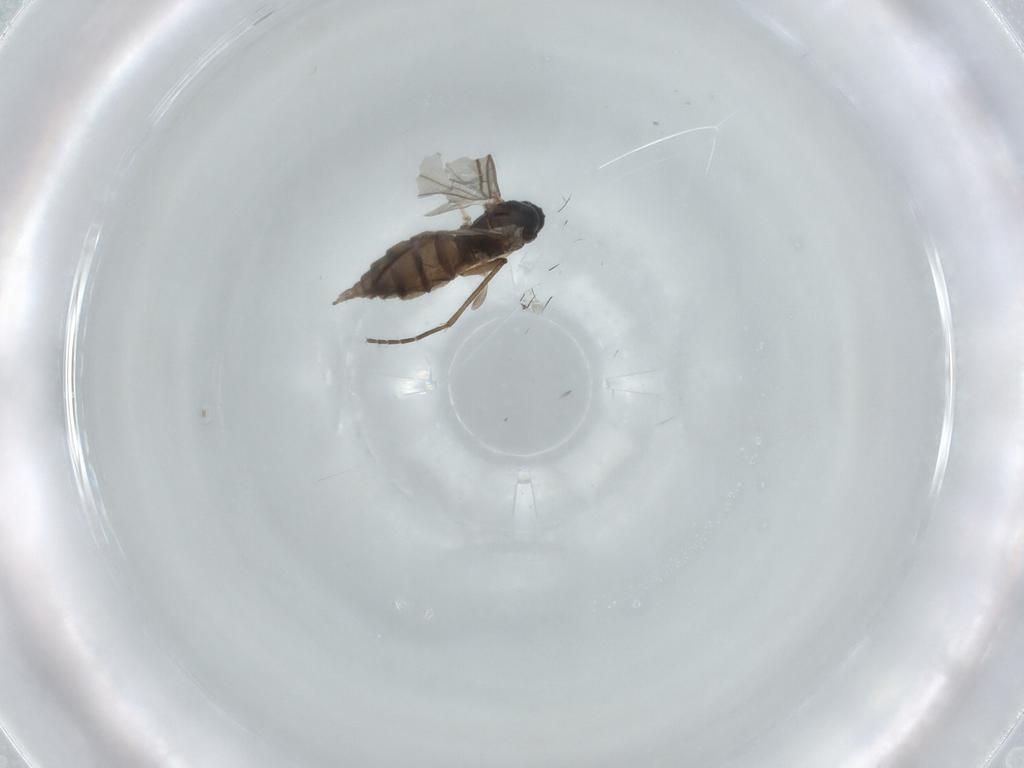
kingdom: Animalia
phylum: Arthropoda
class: Insecta
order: Diptera
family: Sciaridae
